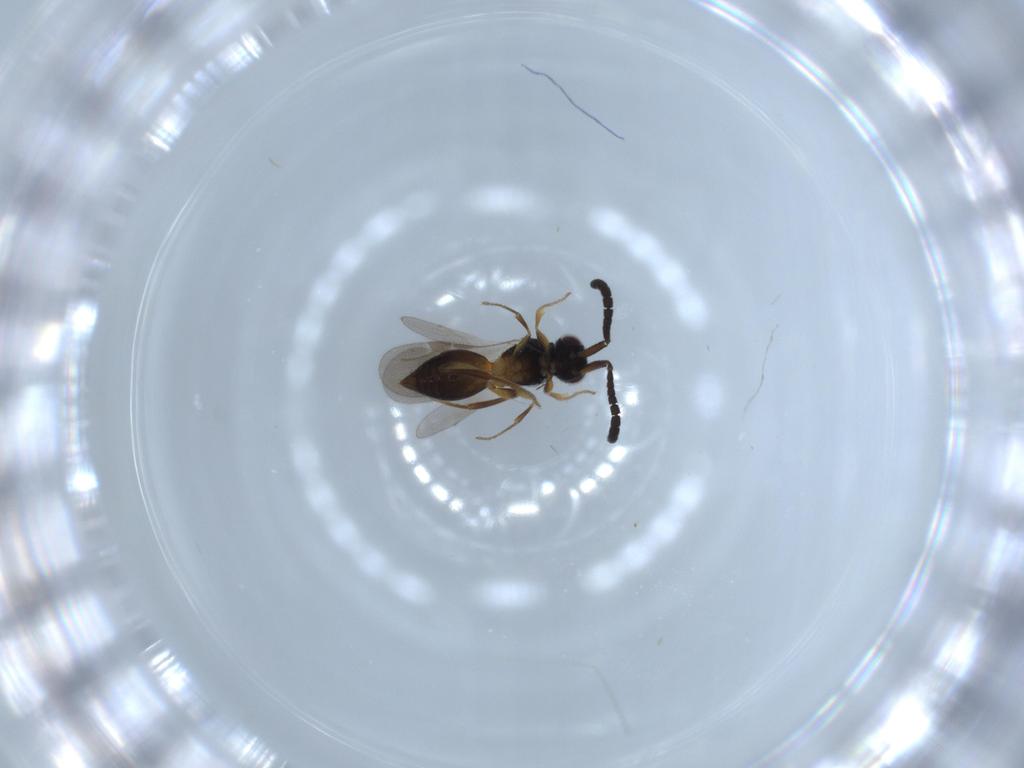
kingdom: Animalia
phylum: Arthropoda
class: Insecta
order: Hymenoptera
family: Megaspilidae
